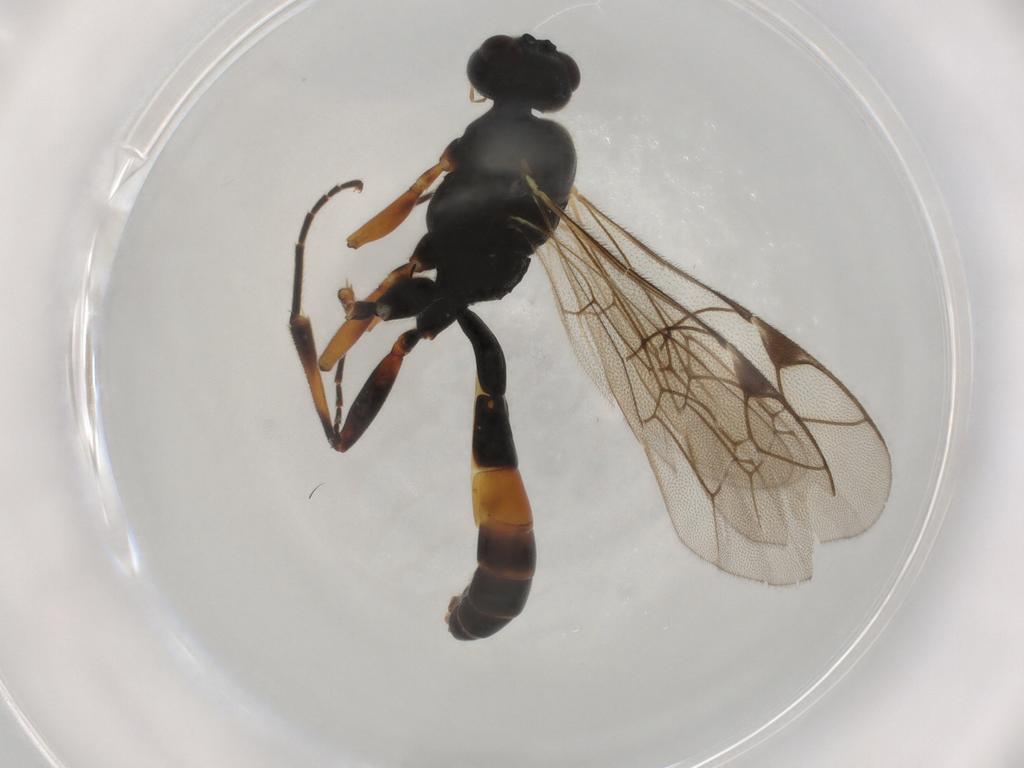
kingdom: Animalia
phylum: Arthropoda
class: Insecta
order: Hymenoptera
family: Ichneumonidae
